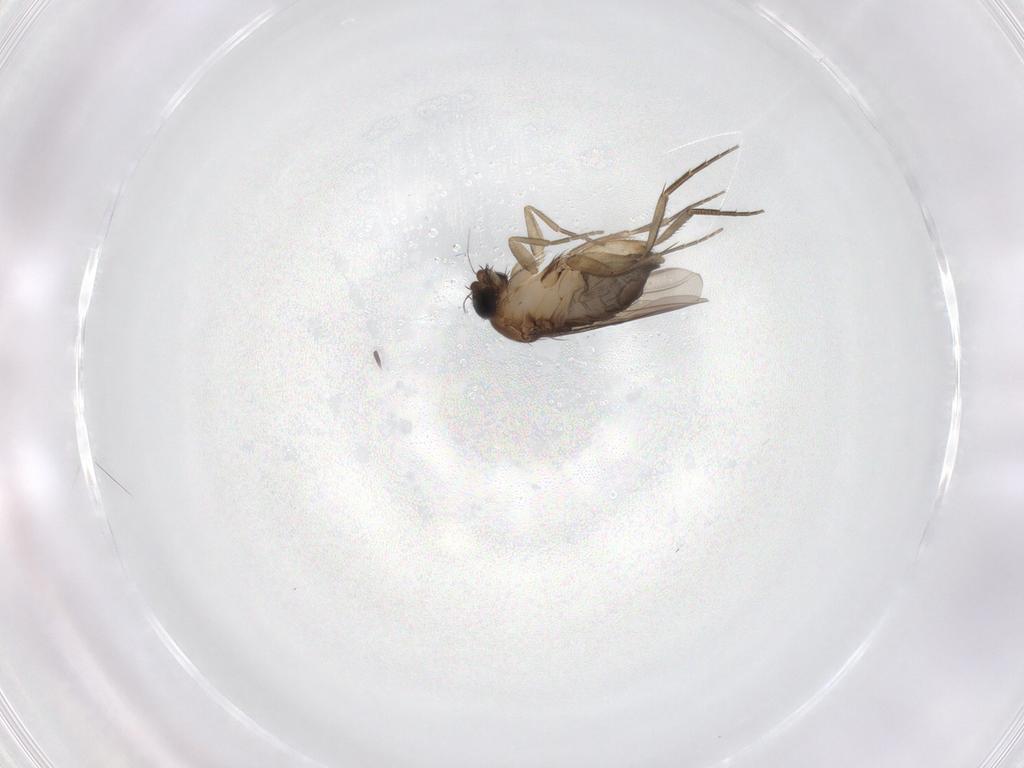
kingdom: Animalia
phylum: Arthropoda
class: Insecta
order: Diptera
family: Phoridae
